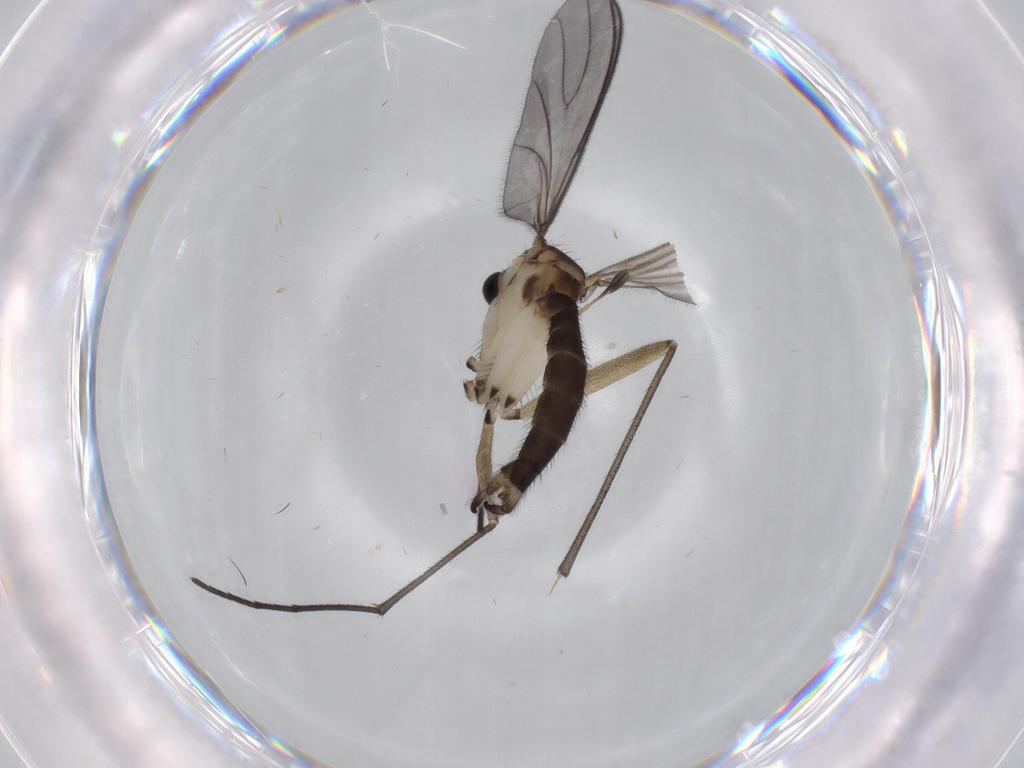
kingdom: Animalia
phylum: Arthropoda
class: Insecta
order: Diptera
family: Sciaridae
